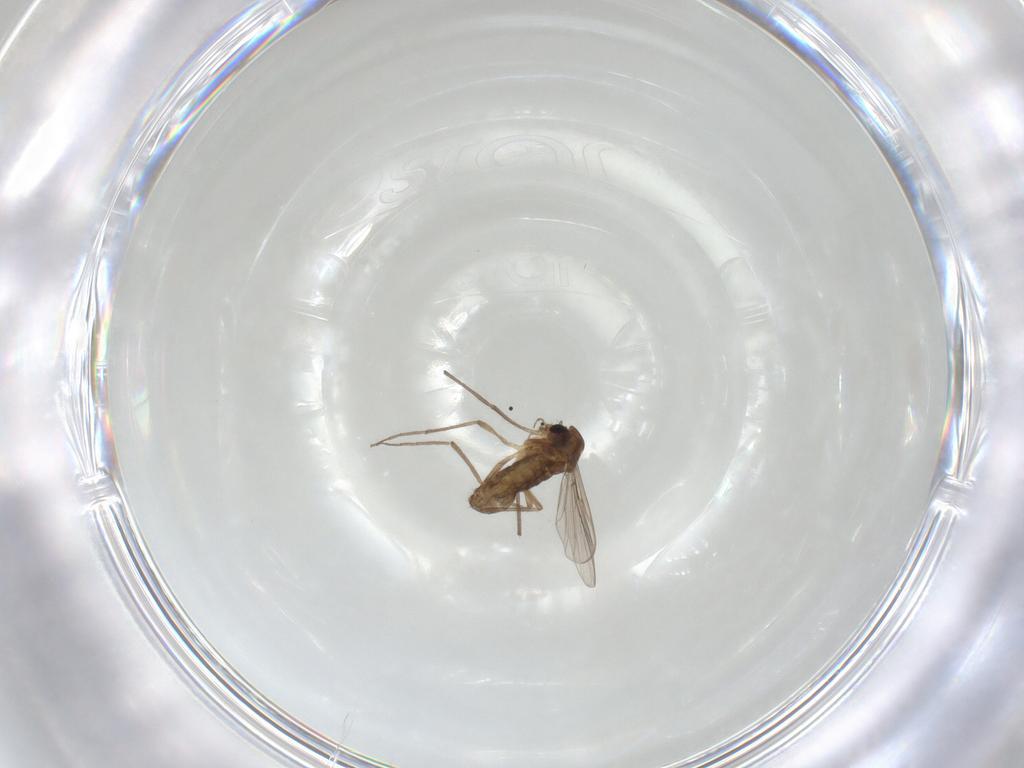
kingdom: Animalia
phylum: Arthropoda
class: Insecta
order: Diptera
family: Chironomidae
